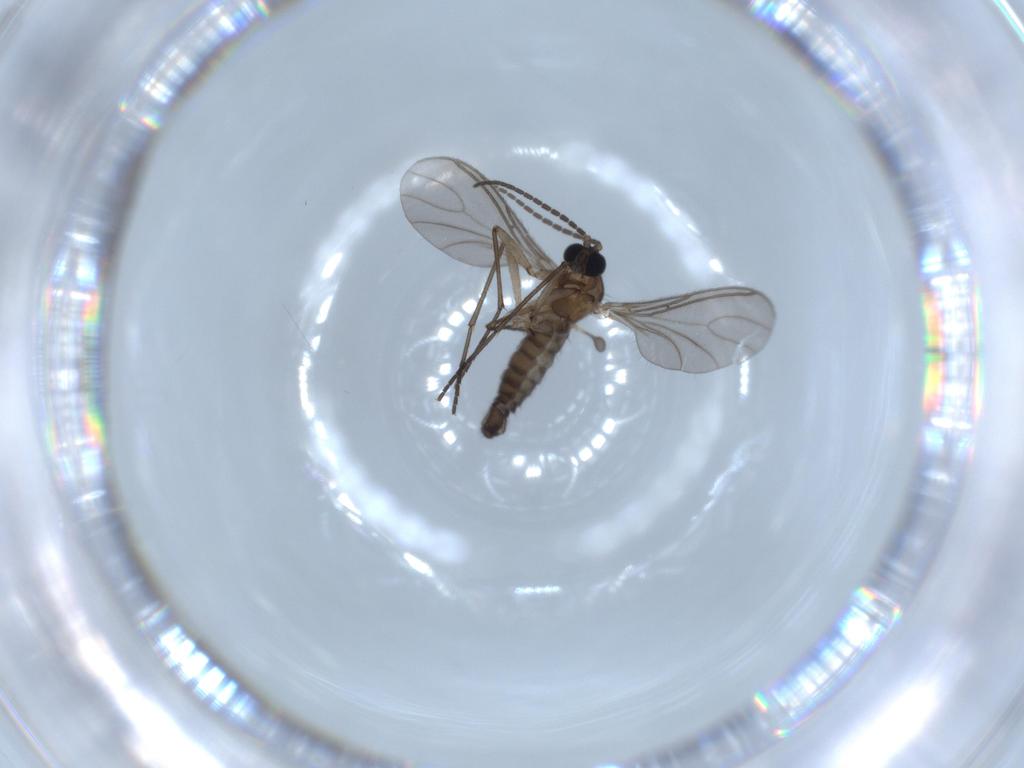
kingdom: Animalia
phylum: Arthropoda
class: Insecta
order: Diptera
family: Sciaridae
